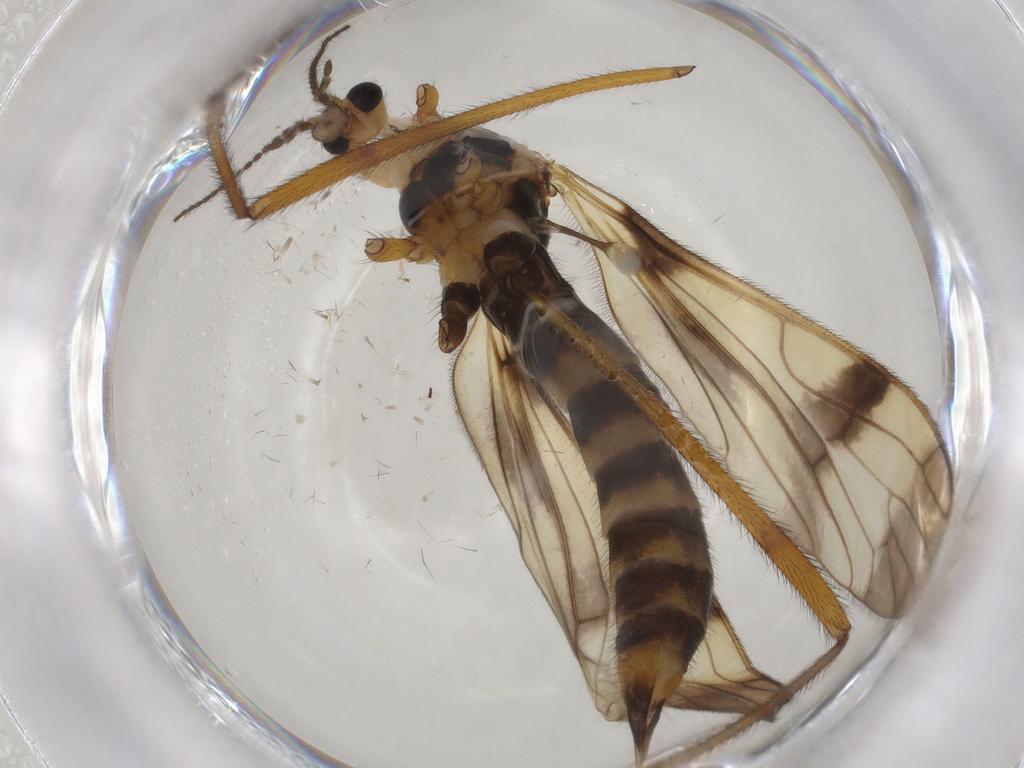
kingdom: Animalia
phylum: Arthropoda
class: Insecta
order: Diptera
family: Limoniidae
